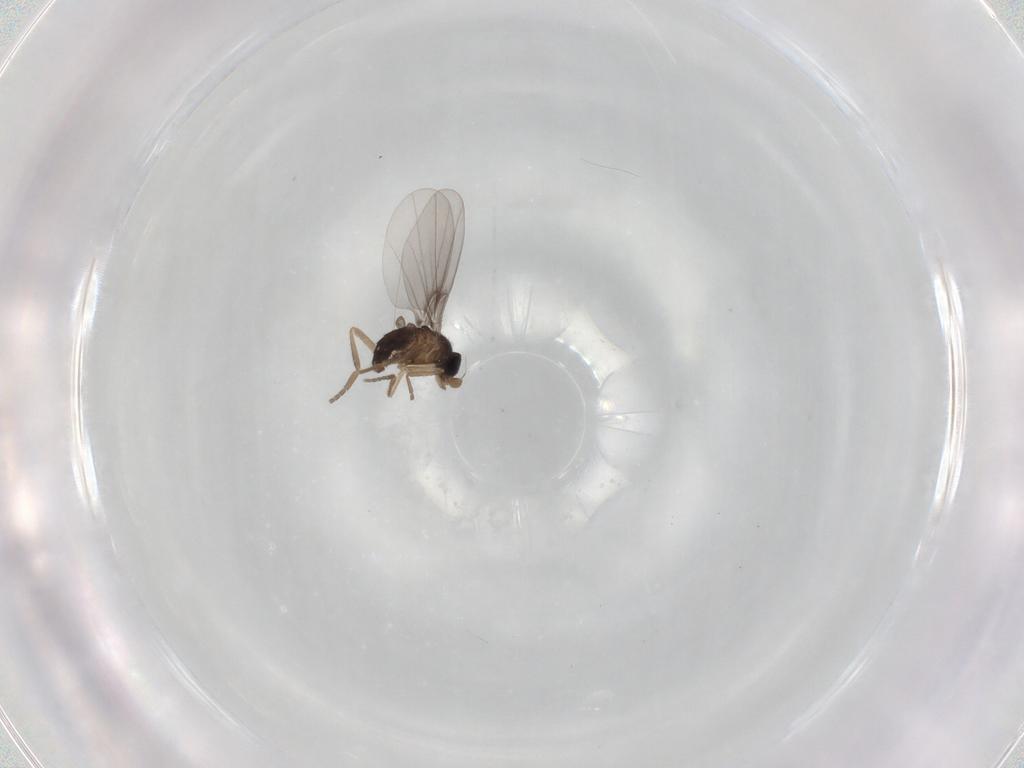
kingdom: Animalia
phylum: Arthropoda
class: Insecta
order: Diptera
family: Phoridae
